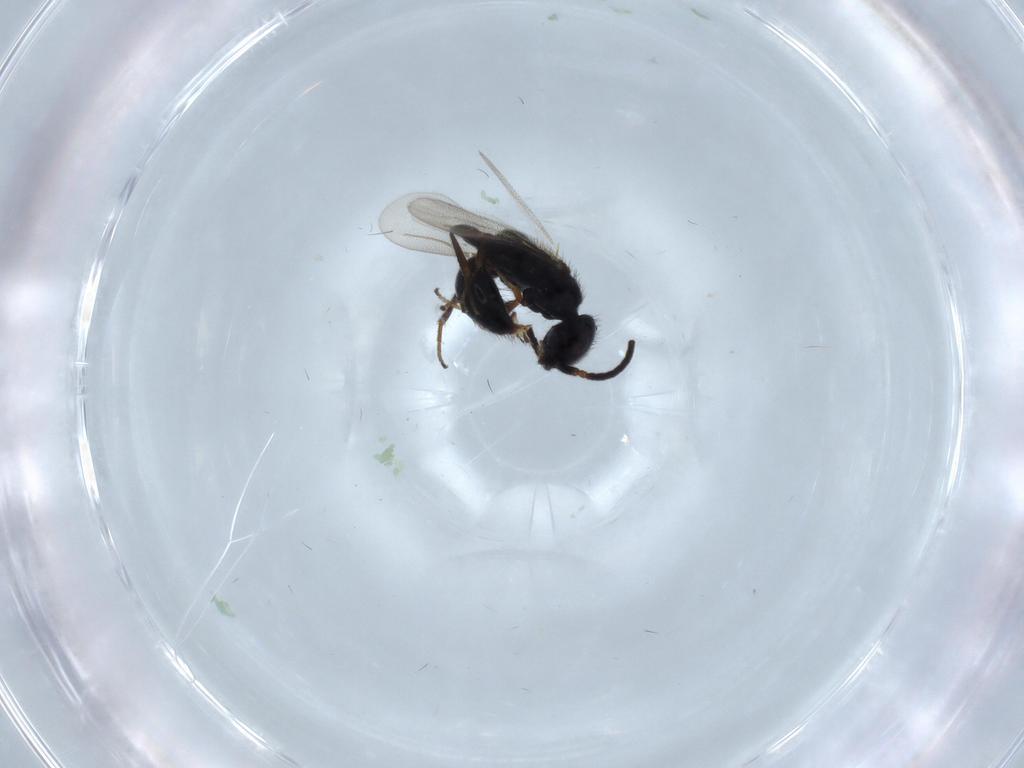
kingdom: Animalia
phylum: Arthropoda
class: Insecta
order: Hymenoptera
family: Bethylidae
